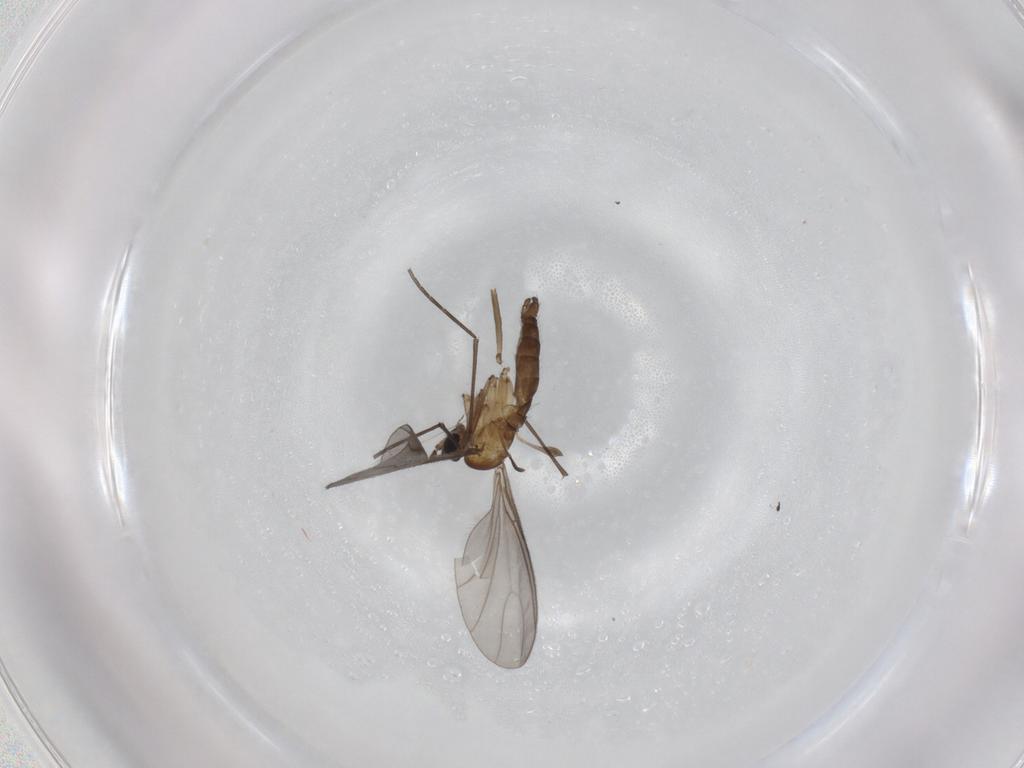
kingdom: Animalia
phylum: Arthropoda
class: Insecta
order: Diptera
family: Sciaridae
